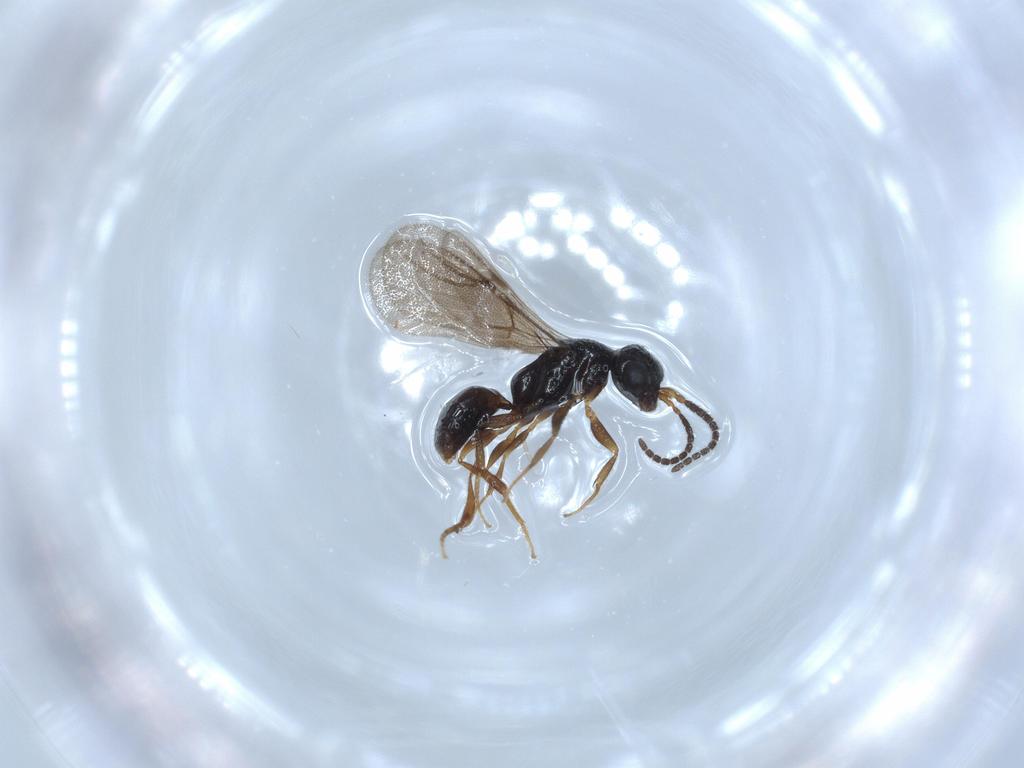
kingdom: Animalia
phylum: Arthropoda
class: Insecta
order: Hymenoptera
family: Bethylidae
